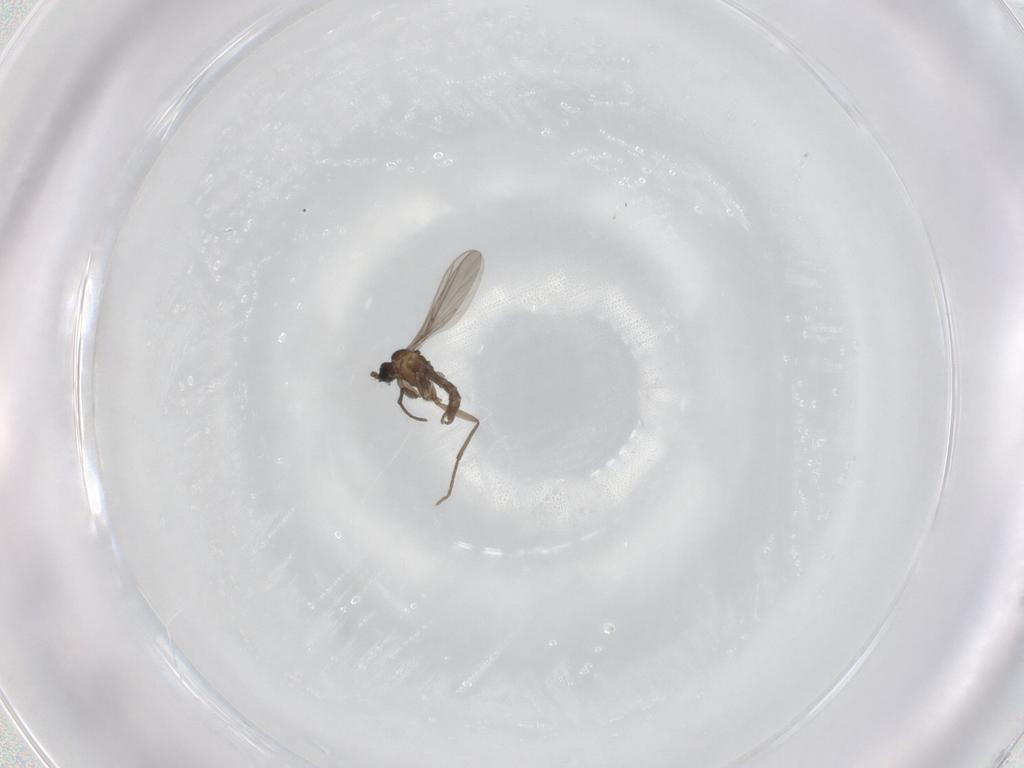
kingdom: Animalia
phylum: Arthropoda
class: Insecta
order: Diptera
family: Sciaridae
